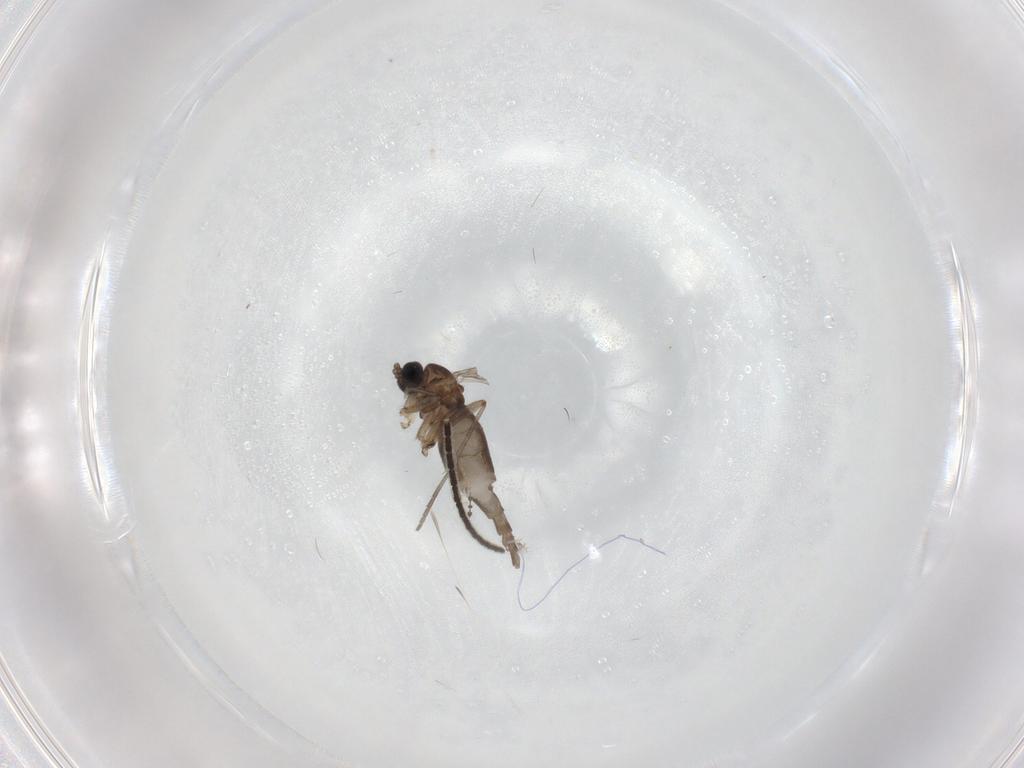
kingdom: Animalia
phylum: Arthropoda
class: Insecta
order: Diptera
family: Sciaridae
